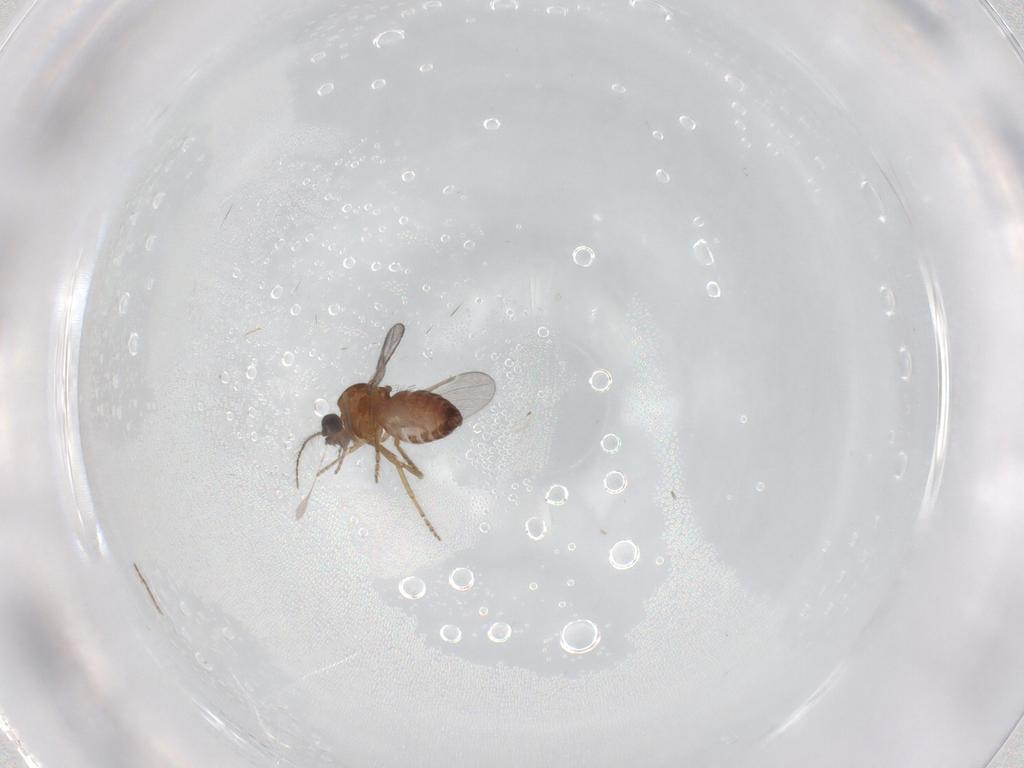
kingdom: Animalia
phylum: Arthropoda
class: Insecta
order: Diptera
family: Ceratopogonidae
